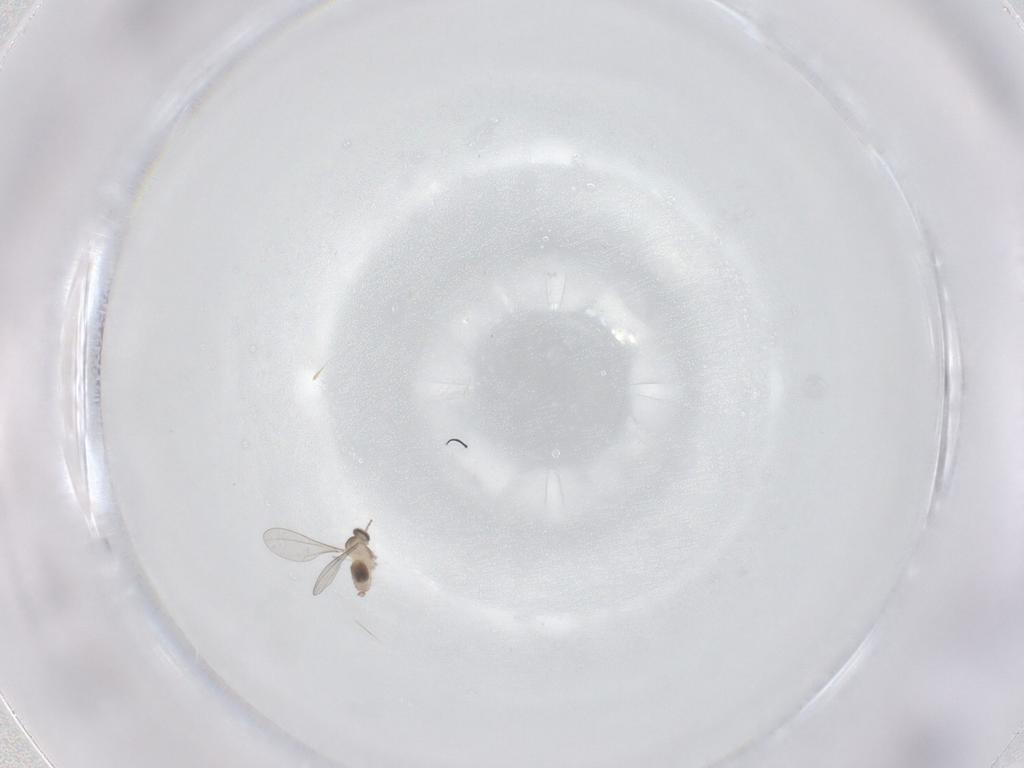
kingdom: Animalia
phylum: Arthropoda
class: Insecta
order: Diptera
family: Cecidomyiidae
